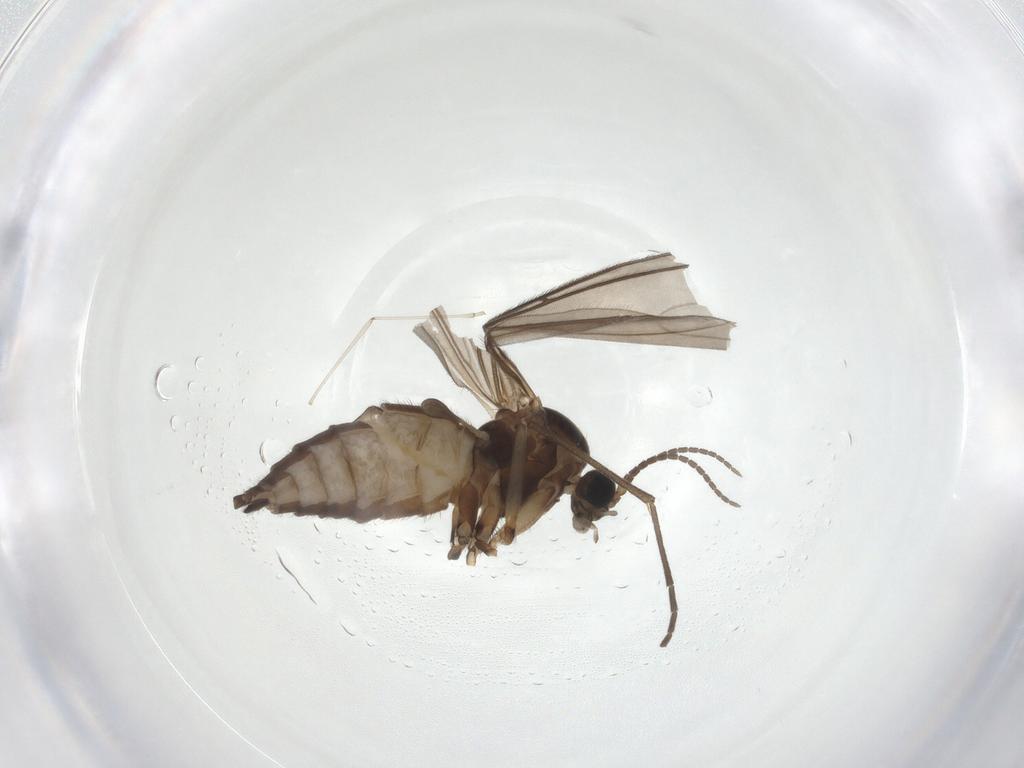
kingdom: Animalia
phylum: Arthropoda
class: Insecta
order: Diptera
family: Sciaridae
